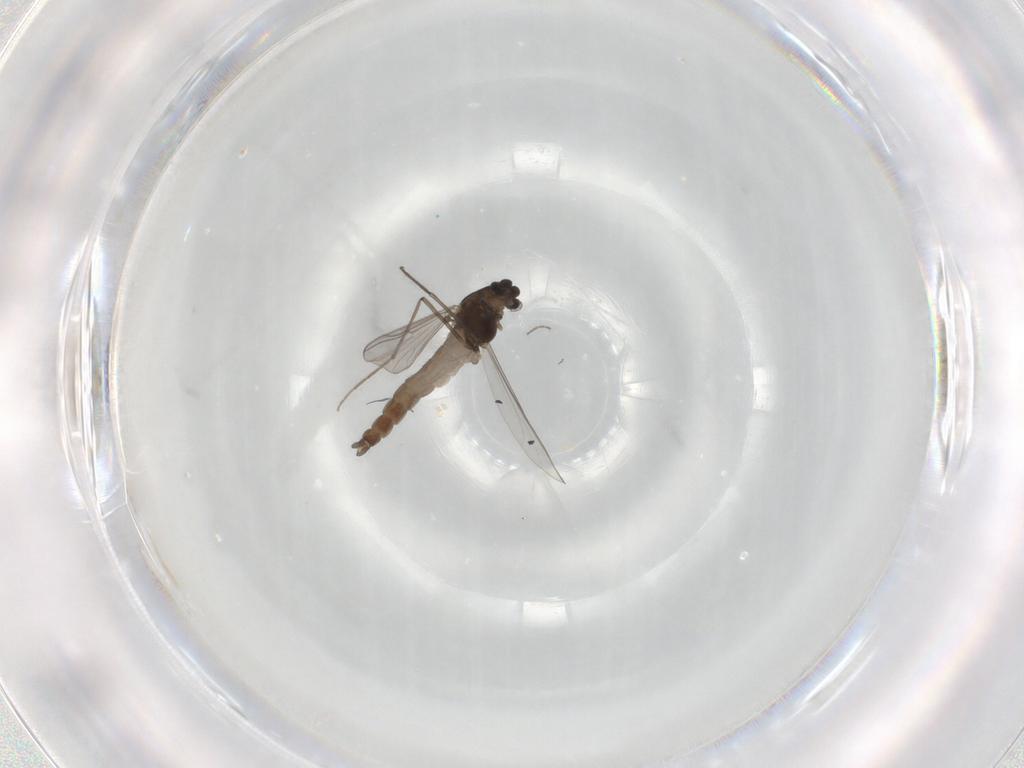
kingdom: Animalia
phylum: Arthropoda
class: Insecta
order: Diptera
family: Chironomidae
